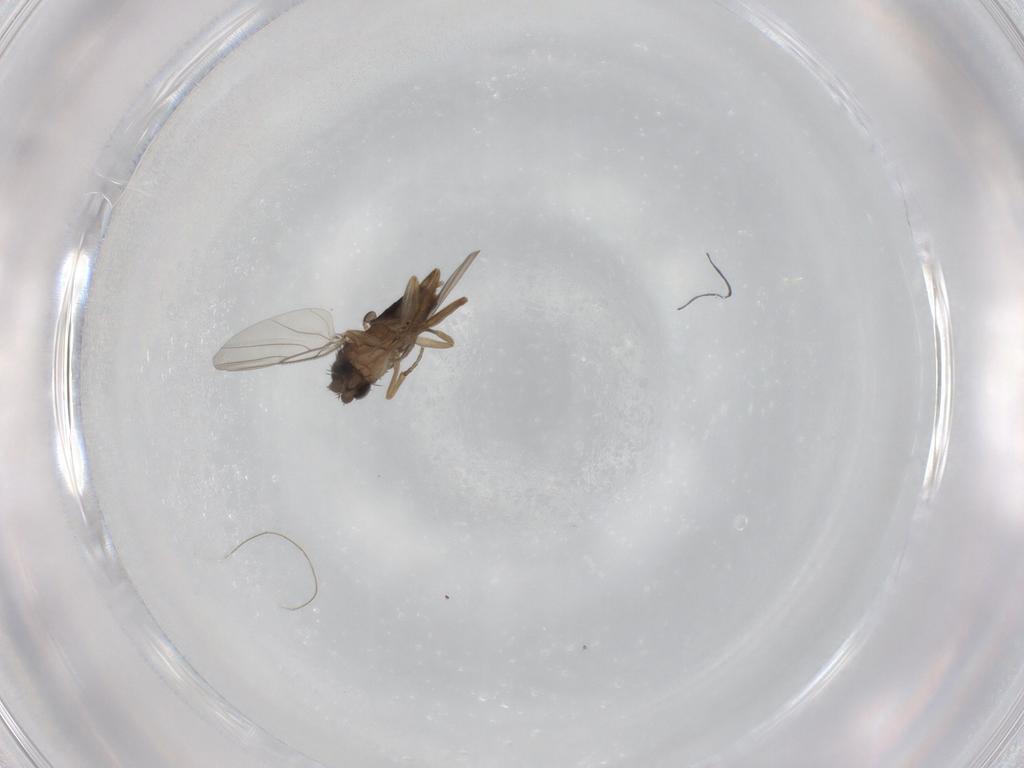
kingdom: Animalia
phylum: Arthropoda
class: Insecta
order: Diptera
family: Phoridae
